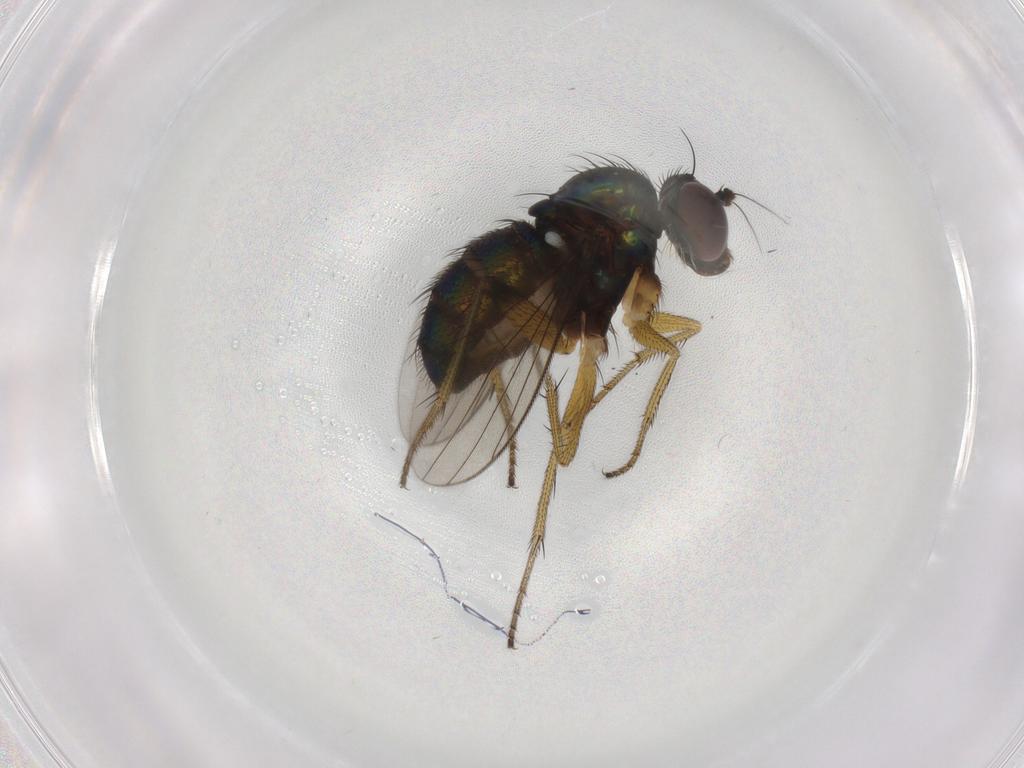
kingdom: Animalia
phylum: Arthropoda
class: Insecta
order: Diptera
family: Dolichopodidae
